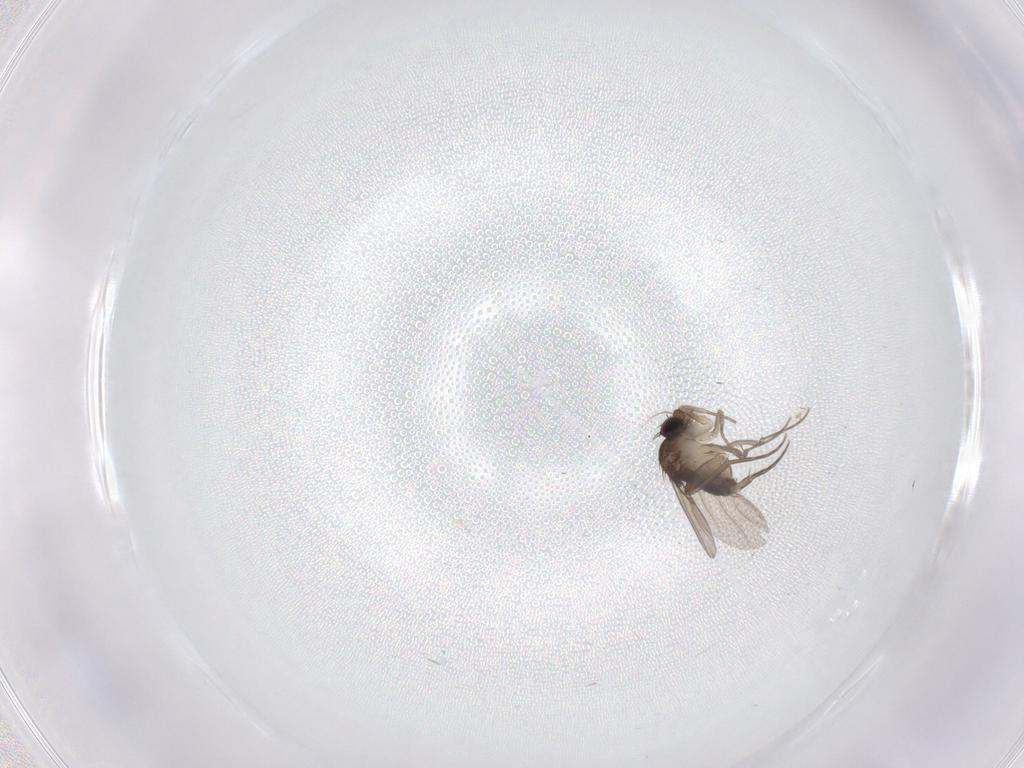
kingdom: Animalia
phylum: Arthropoda
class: Insecta
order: Diptera
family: Phoridae
